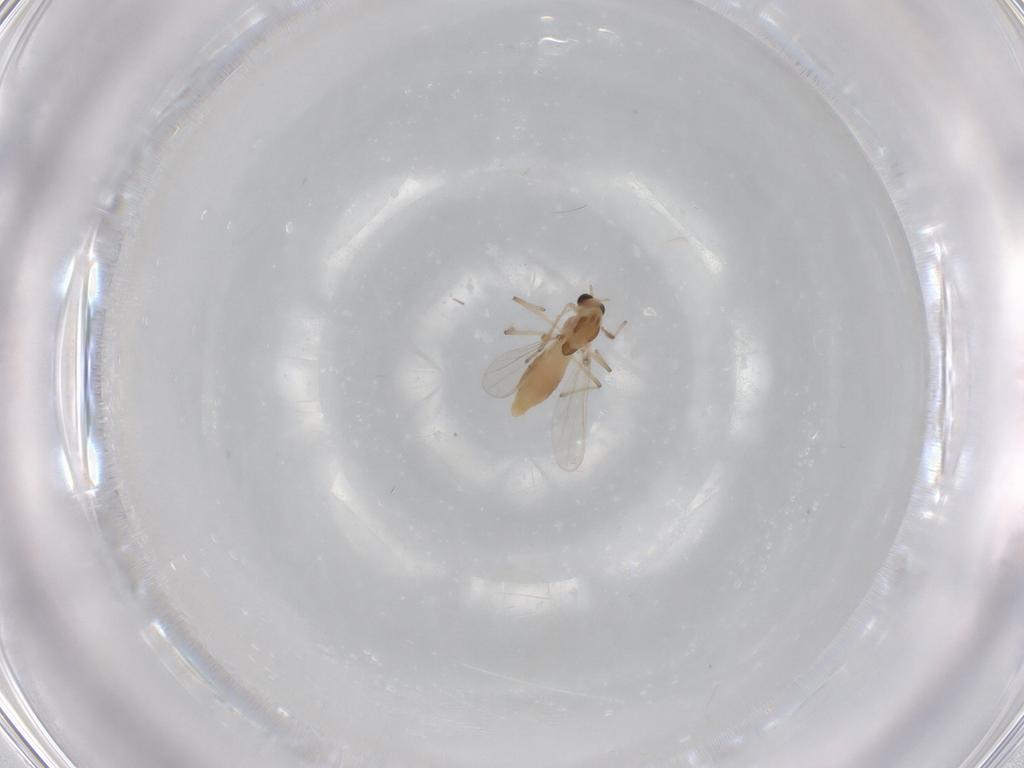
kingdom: Animalia
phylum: Arthropoda
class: Insecta
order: Diptera
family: Chironomidae
